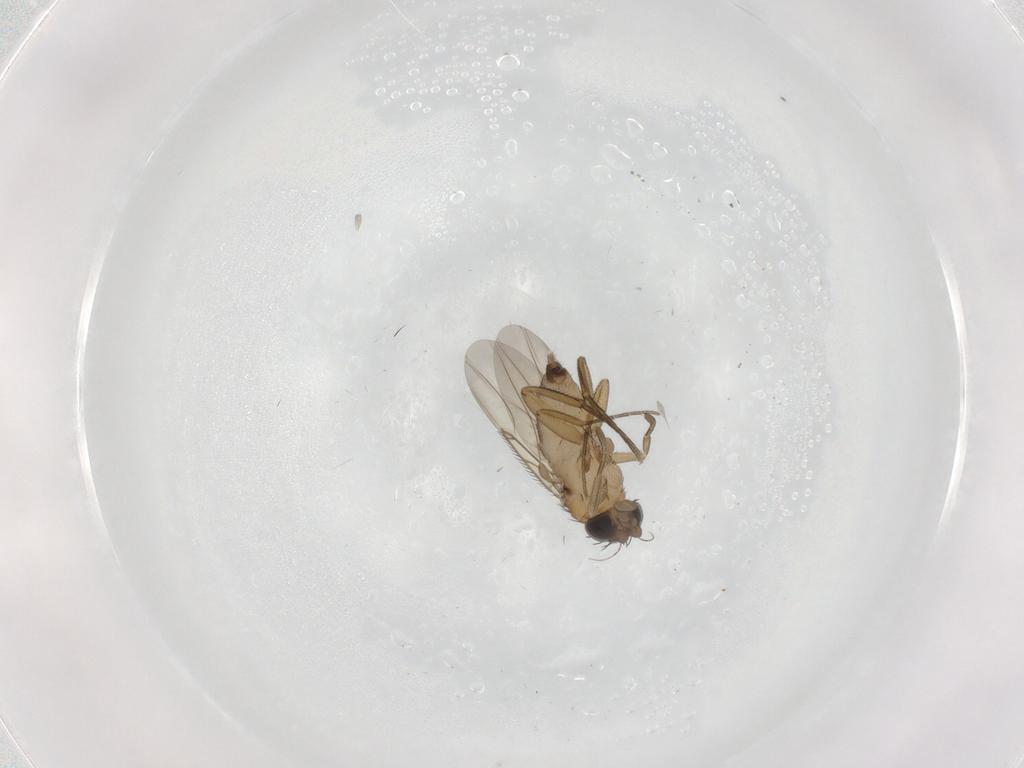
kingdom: Animalia
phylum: Arthropoda
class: Insecta
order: Diptera
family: Phoridae
